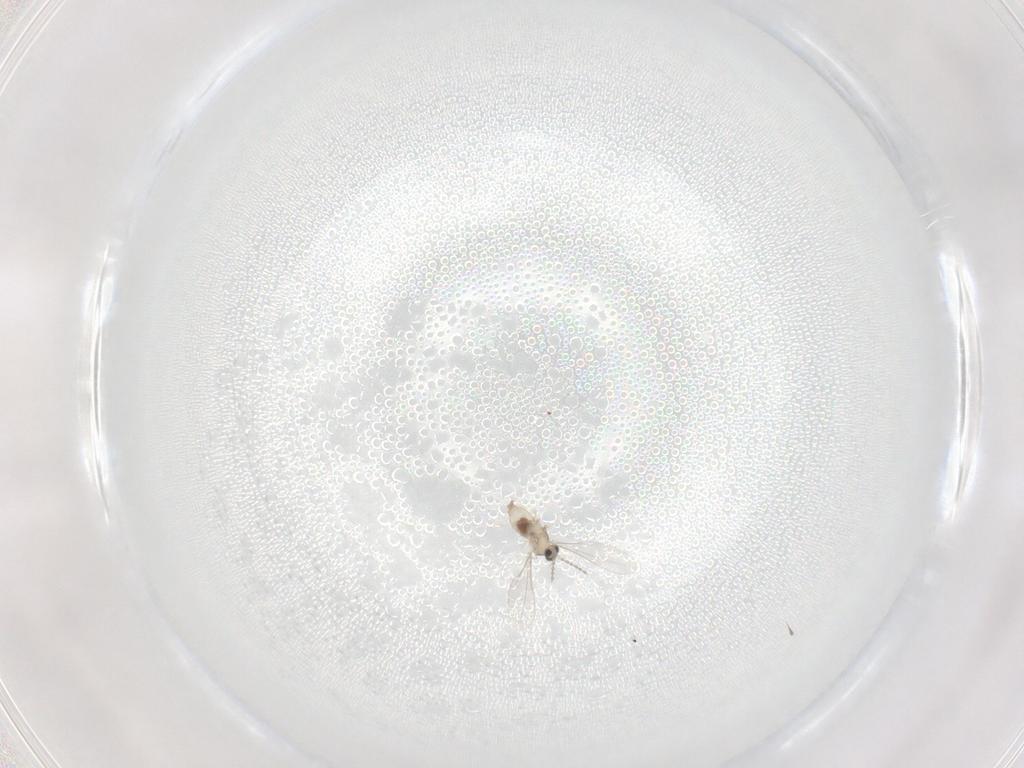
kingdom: Animalia
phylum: Arthropoda
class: Insecta
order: Diptera
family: Cecidomyiidae
